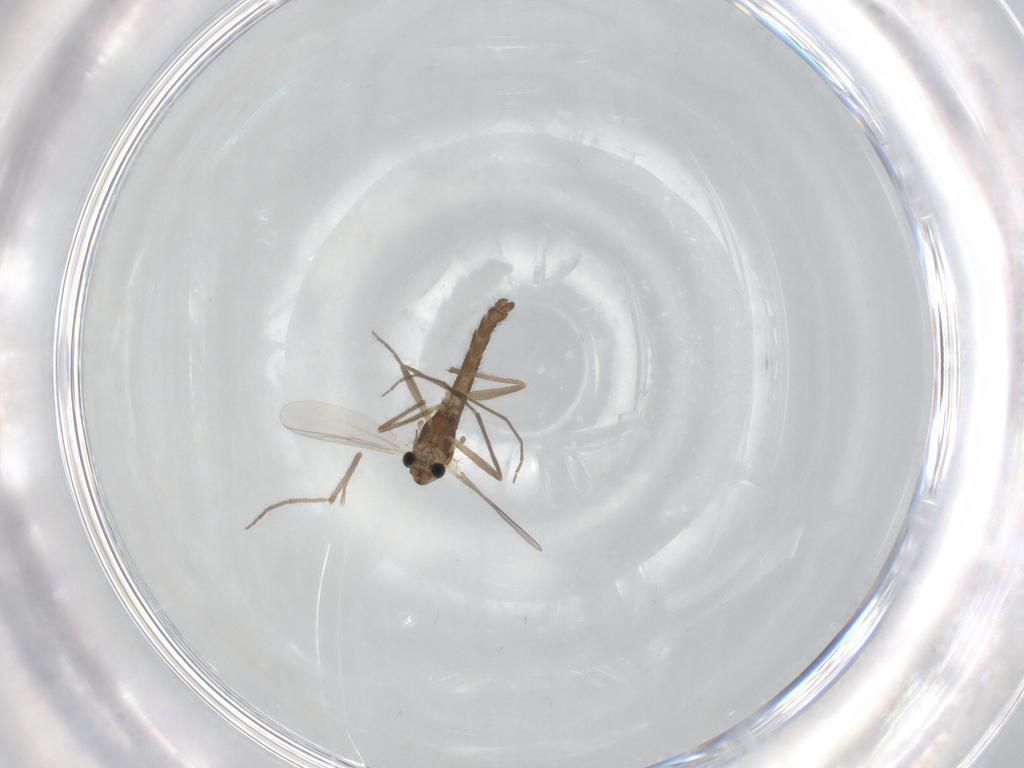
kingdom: Animalia
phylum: Arthropoda
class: Insecta
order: Diptera
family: Chironomidae
